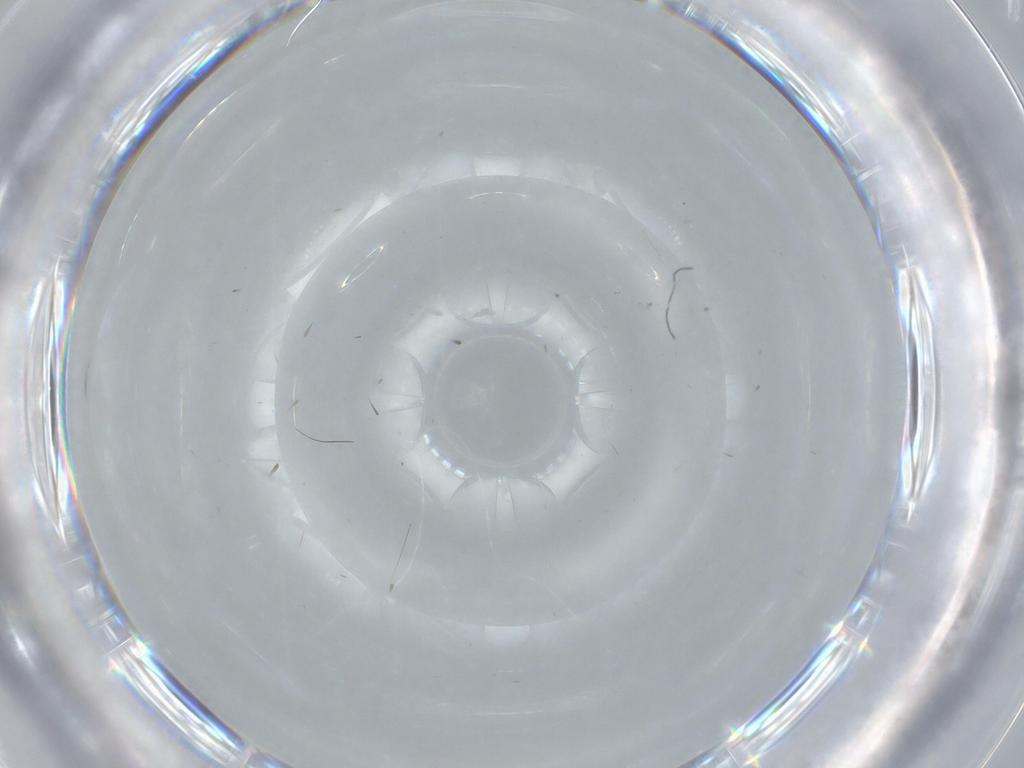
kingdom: Animalia
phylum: Arthropoda
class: Insecta
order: Diptera
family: Cecidomyiidae
